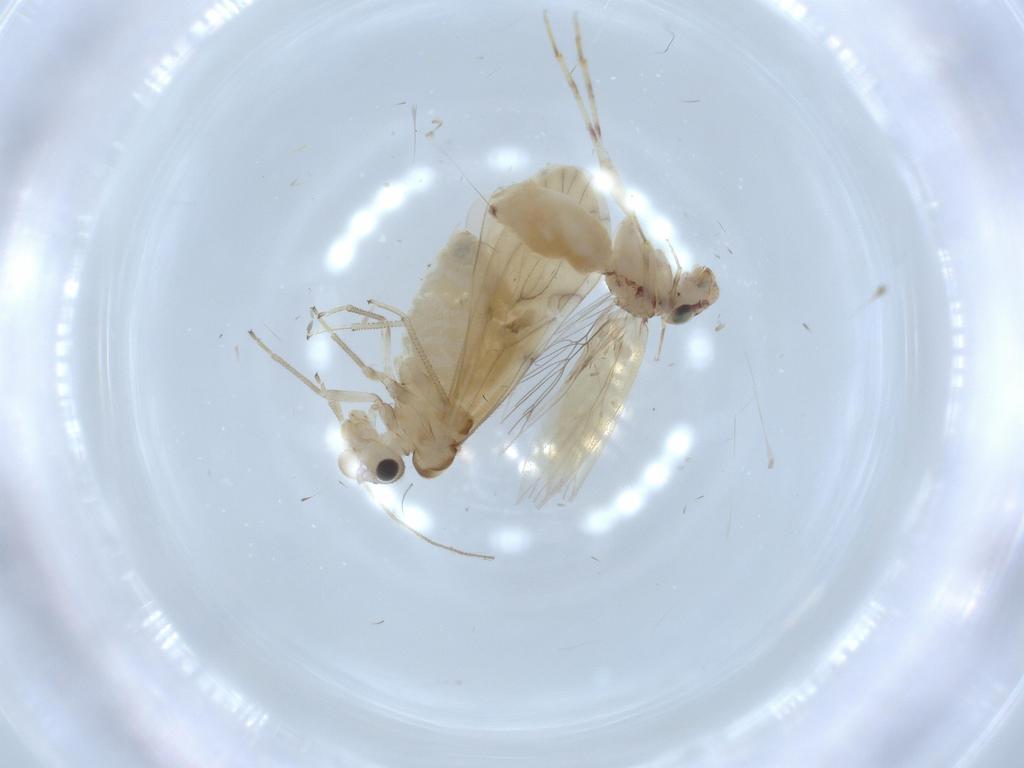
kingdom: Animalia
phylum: Arthropoda
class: Insecta
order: Psocodea
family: Caeciliusidae
